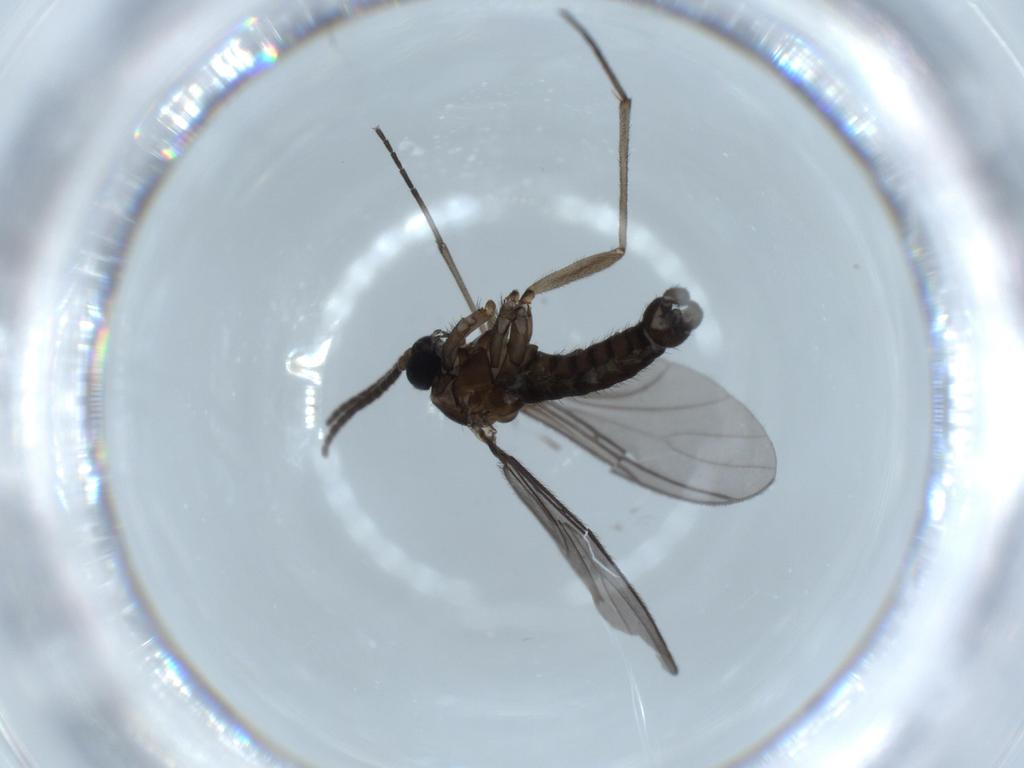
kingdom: Animalia
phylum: Arthropoda
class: Insecta
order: Diptera
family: Sciaridae
